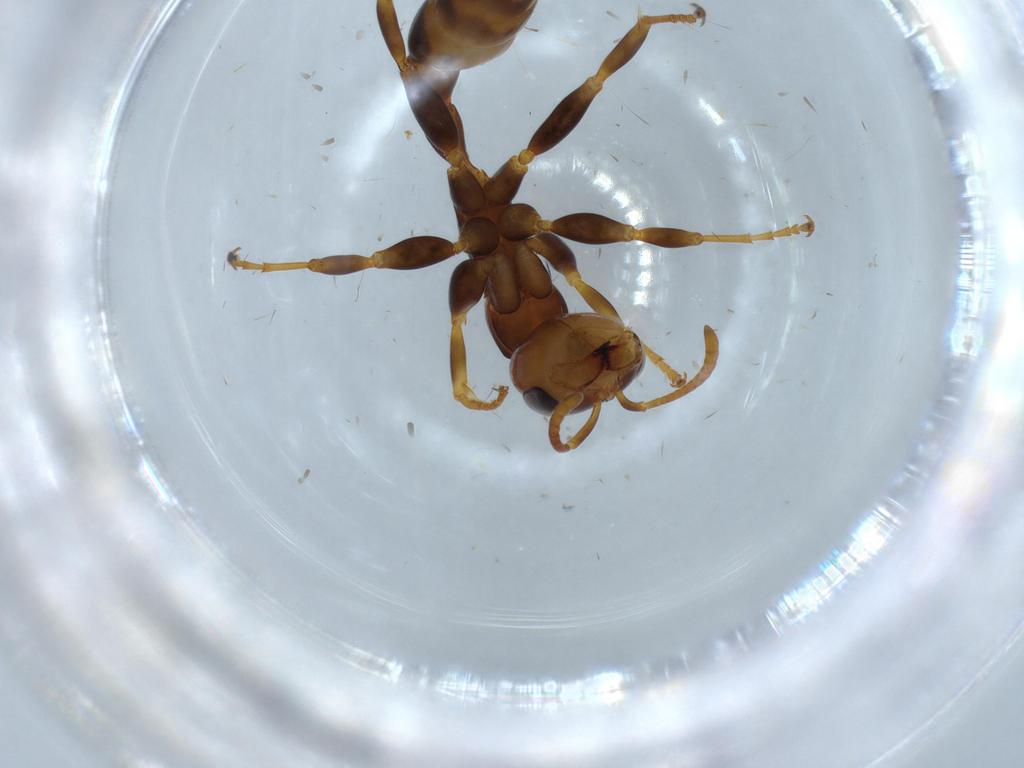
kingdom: Animalia
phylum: Arthropoda
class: Insecta
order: Hymenoptera
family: Formicidae
